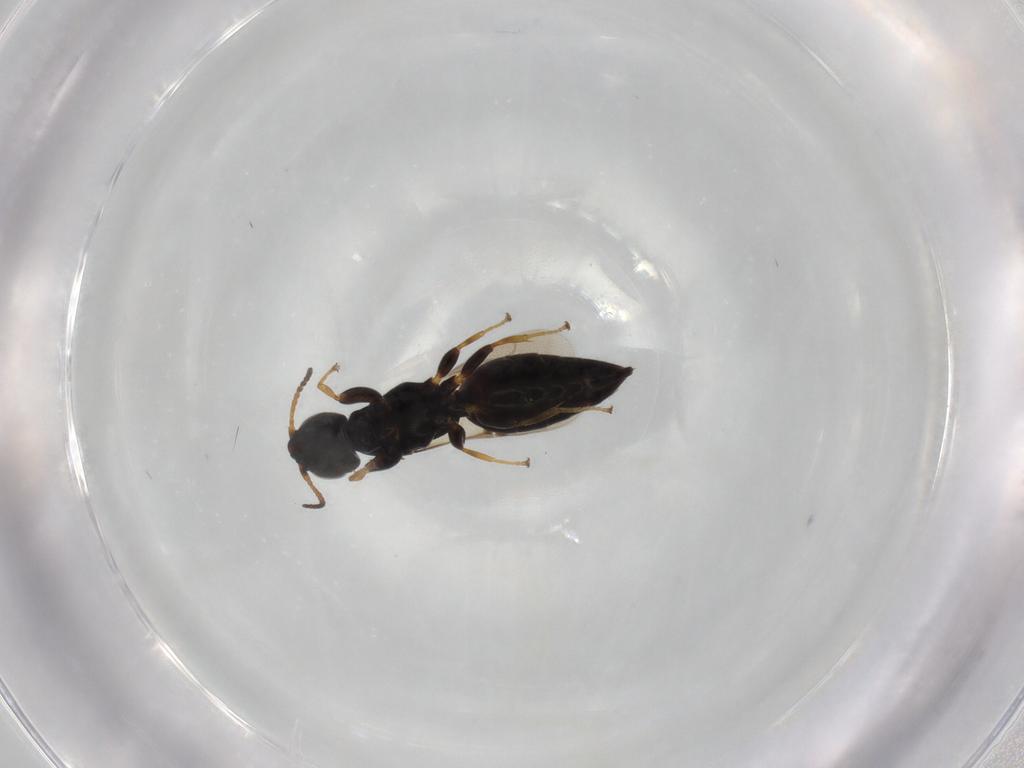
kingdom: Animalia
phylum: Arthropoda
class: Insecta
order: Hymenoptera
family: Bethylidae
